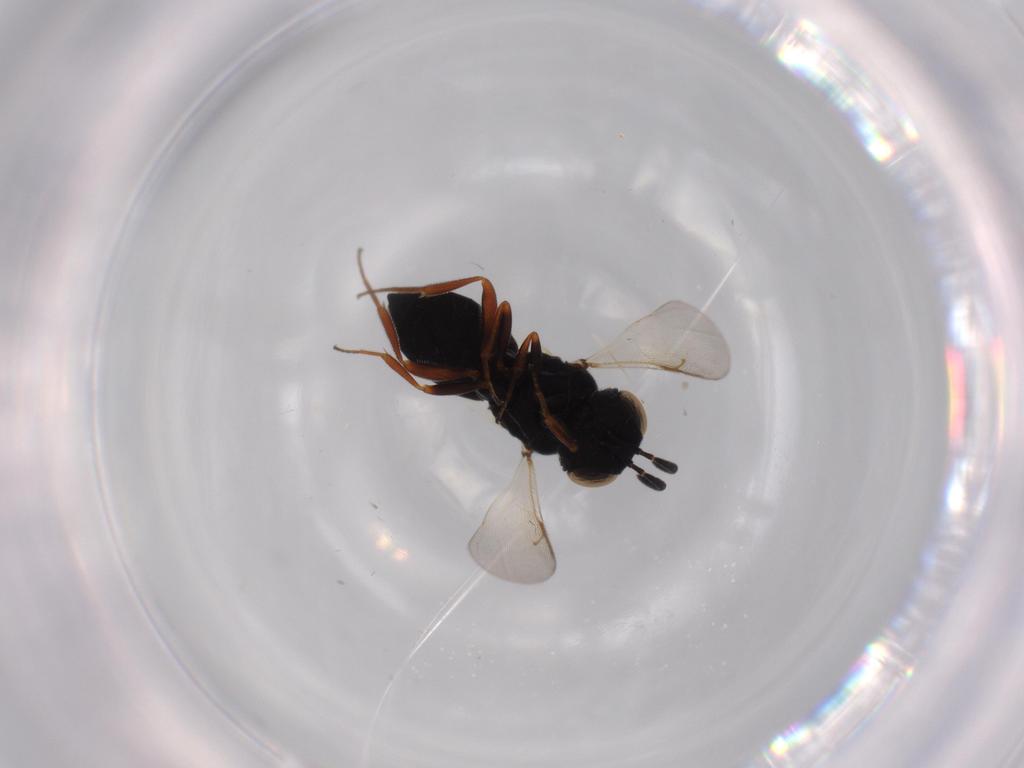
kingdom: Animalia
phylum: Arthropoda
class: Insecta
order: Hymenoptera
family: Scelionidae
